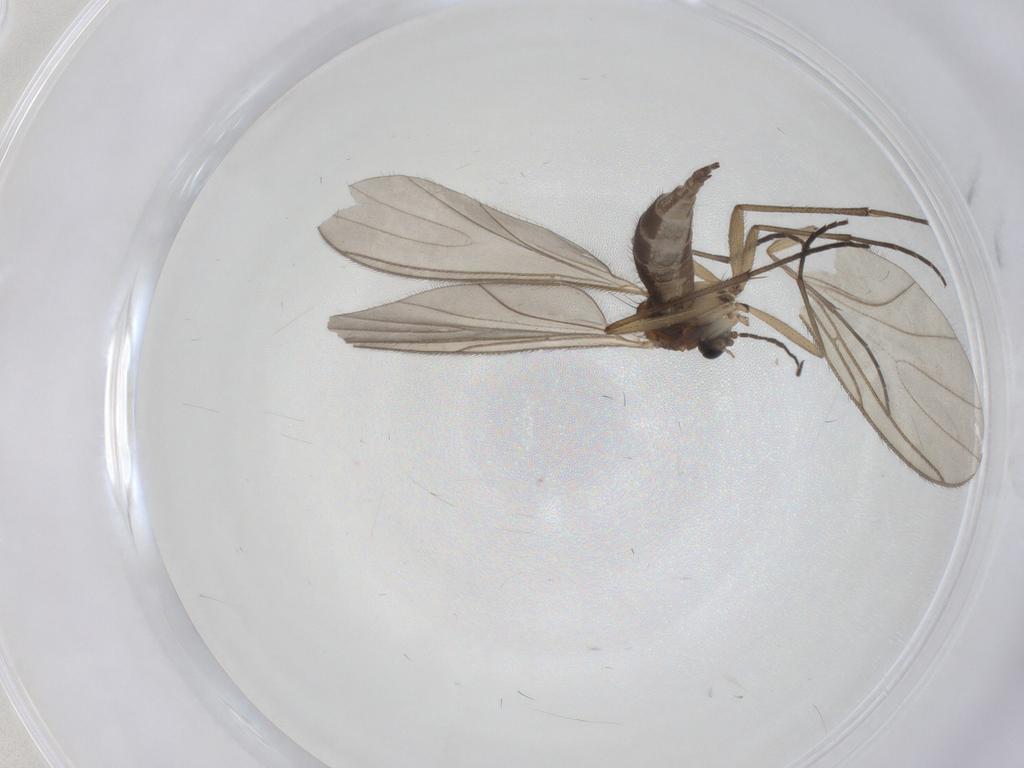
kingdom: Animalia
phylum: Arthropoda
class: Insecta
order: Diptera
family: Sciaridae
